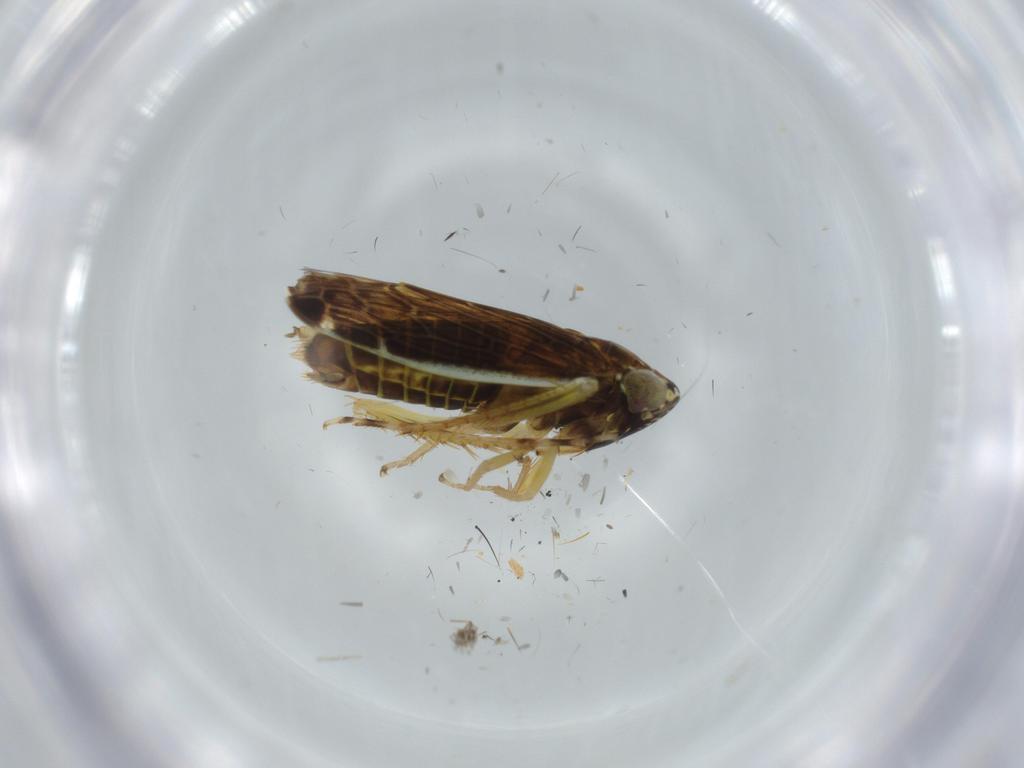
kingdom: Animalia
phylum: Arthropoda
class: Insecta
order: Hemiptera
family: Cicadellidae
